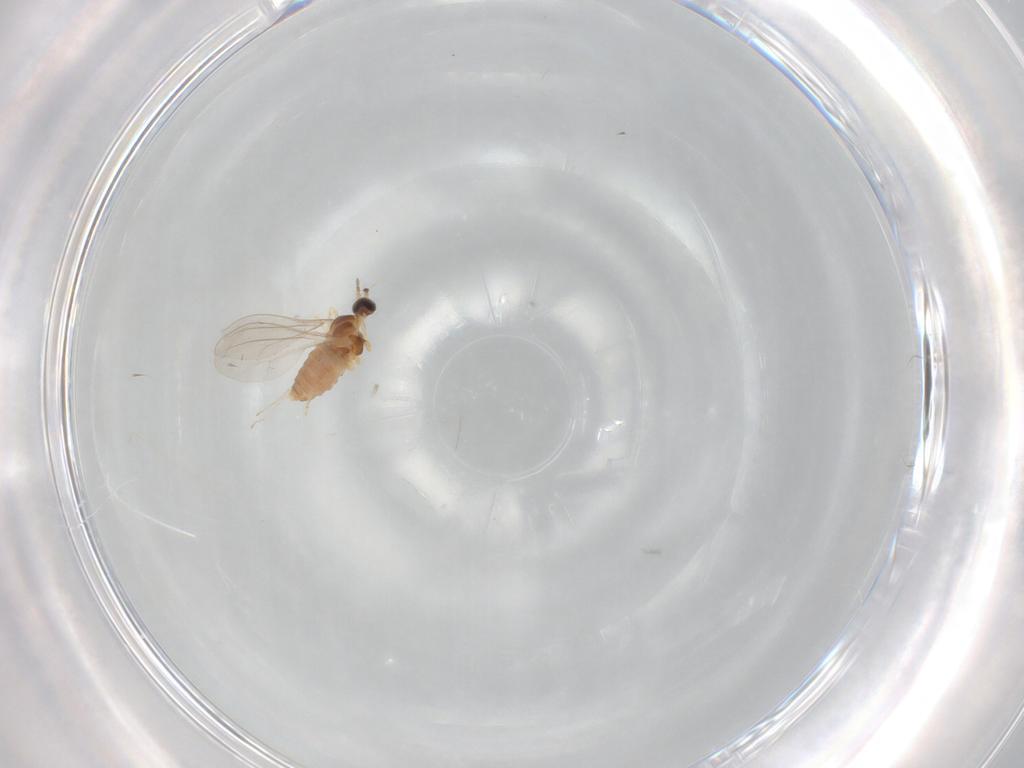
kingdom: Animalia
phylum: Arthropoda
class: Insecta
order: Diptera
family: Cecidomyiidae
